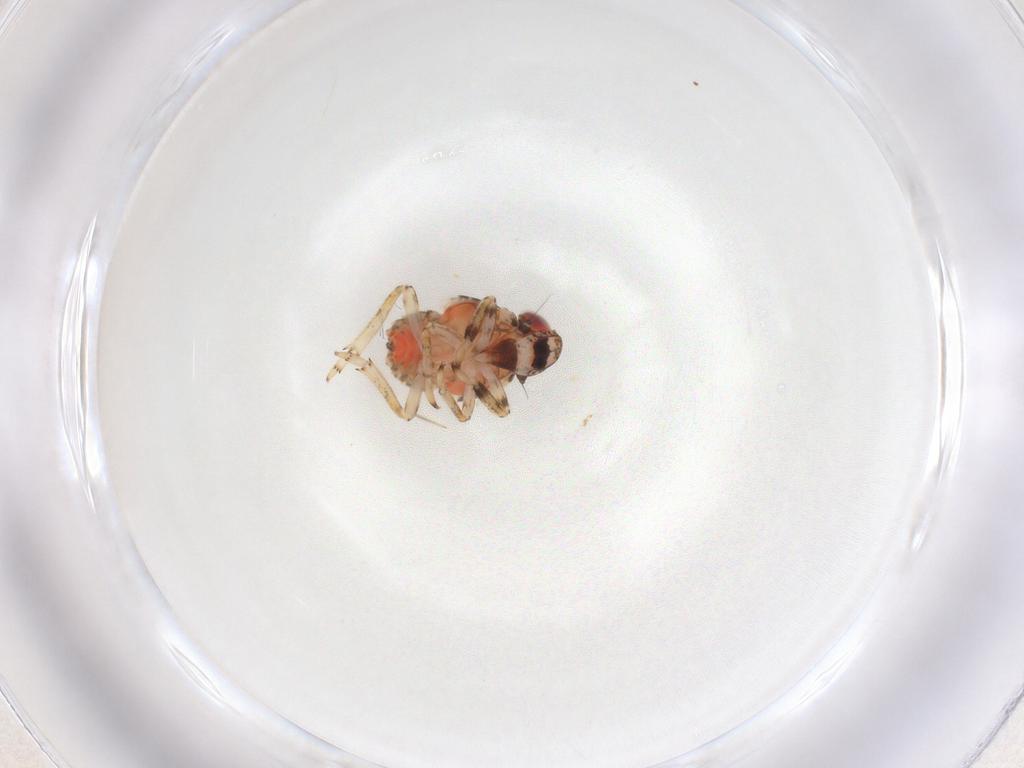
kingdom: Animalia
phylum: Arthropoda
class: Insecta
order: Hemiptera
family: Issidae
